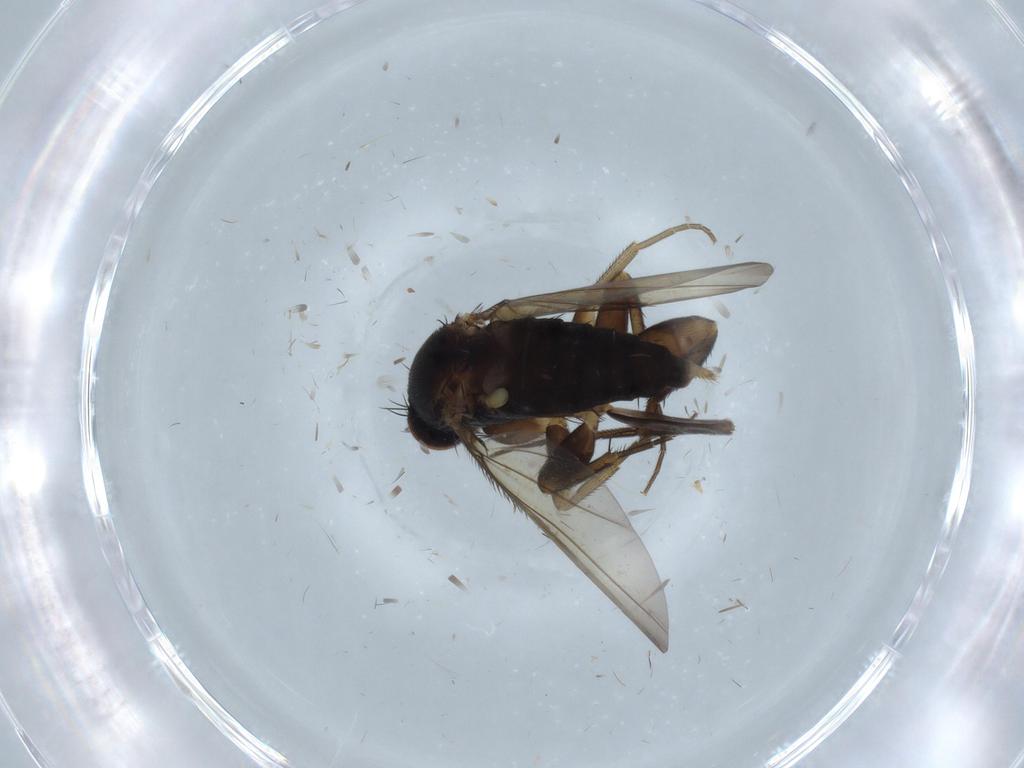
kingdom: Animalia
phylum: Arthropoda
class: Insecta
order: Diptera
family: Phoridae
